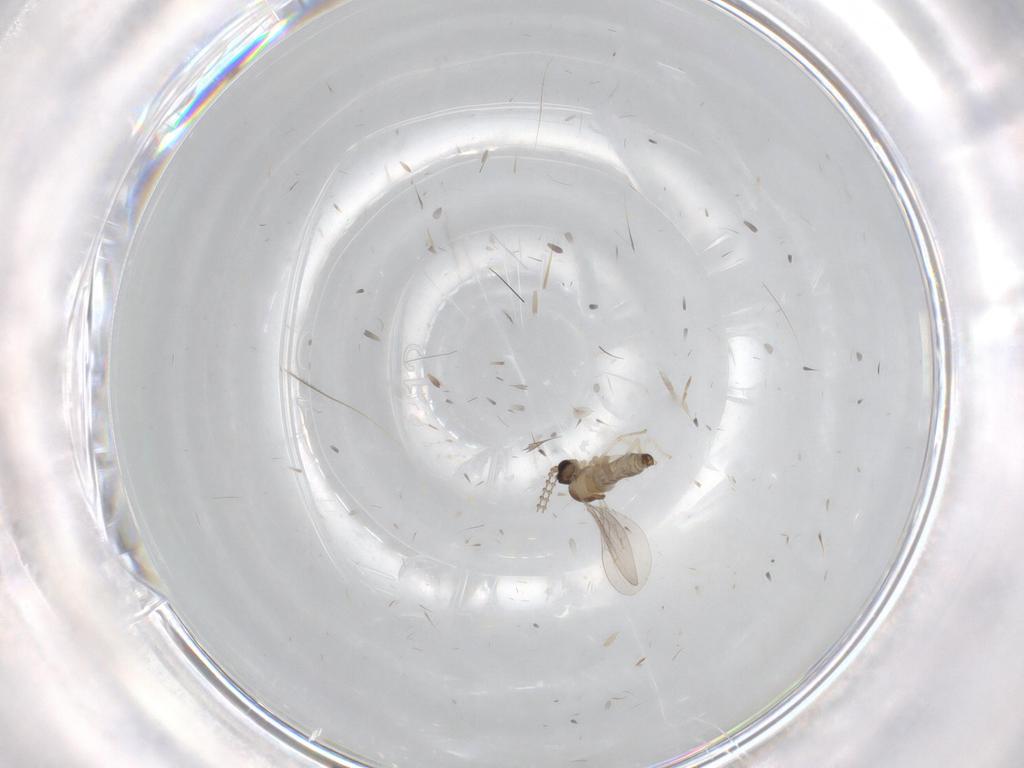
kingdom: Animalia
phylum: Arthropoda
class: Insecta
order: Diptera
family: Cecidomyiidae
